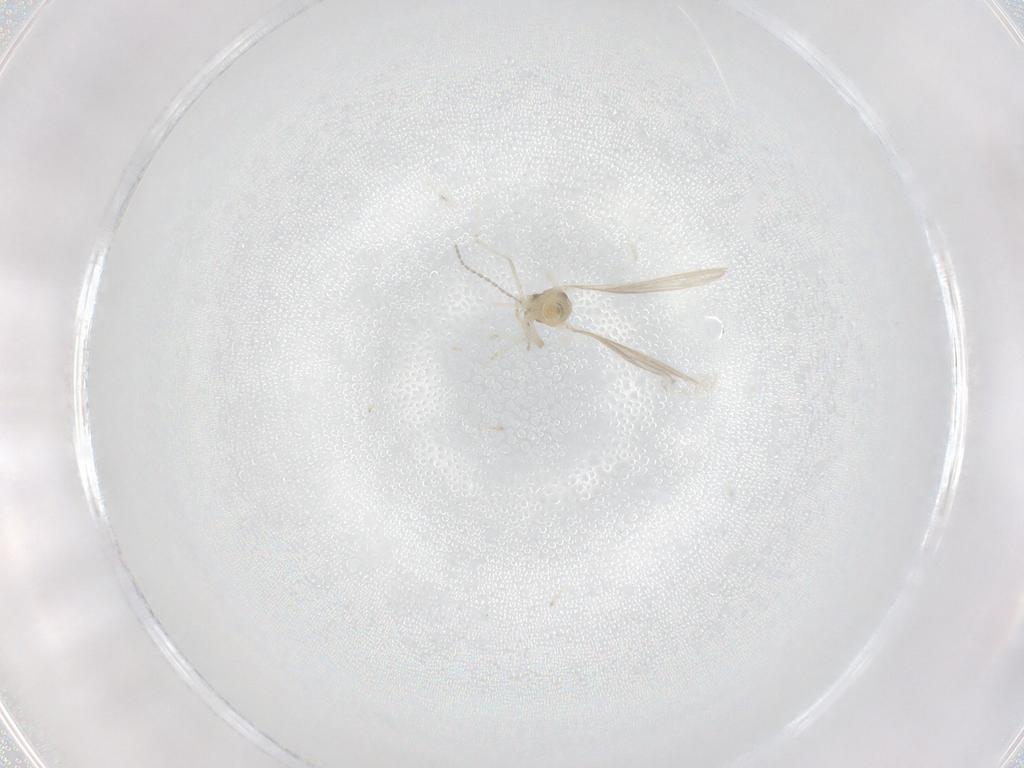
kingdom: Animalia
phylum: Arthropoda
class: Insecta
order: Diptera
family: Cecidomyiidae
